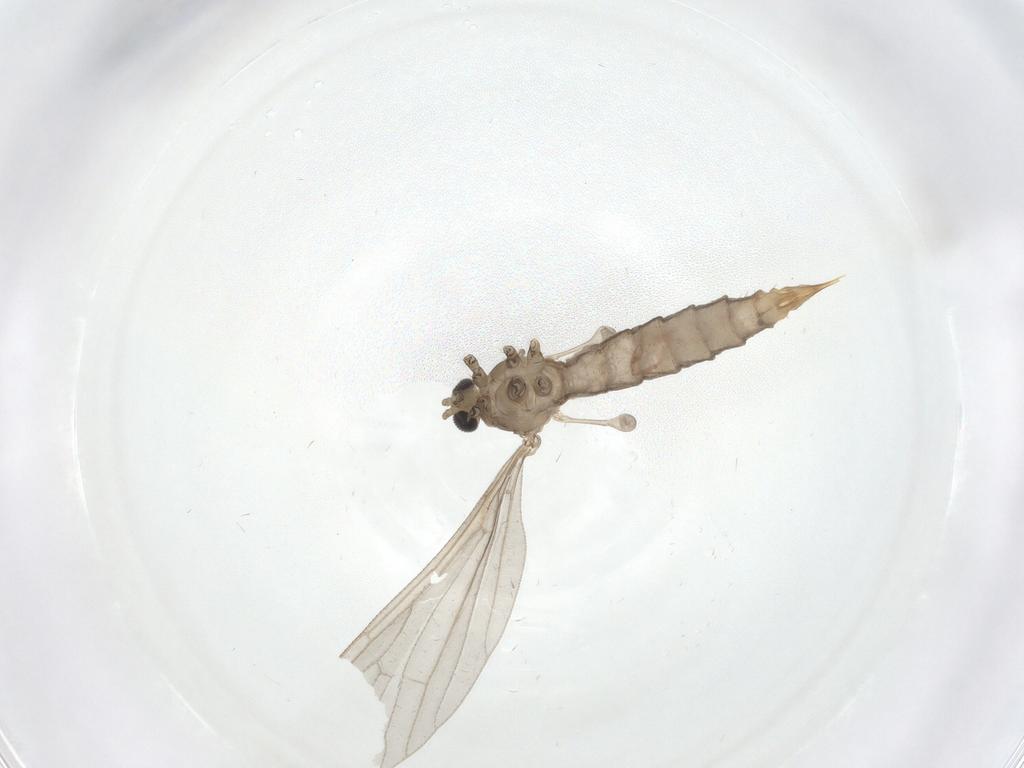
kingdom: Animalia
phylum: Arthropoda
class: Insecta
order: Diptera
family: Limoniidae
